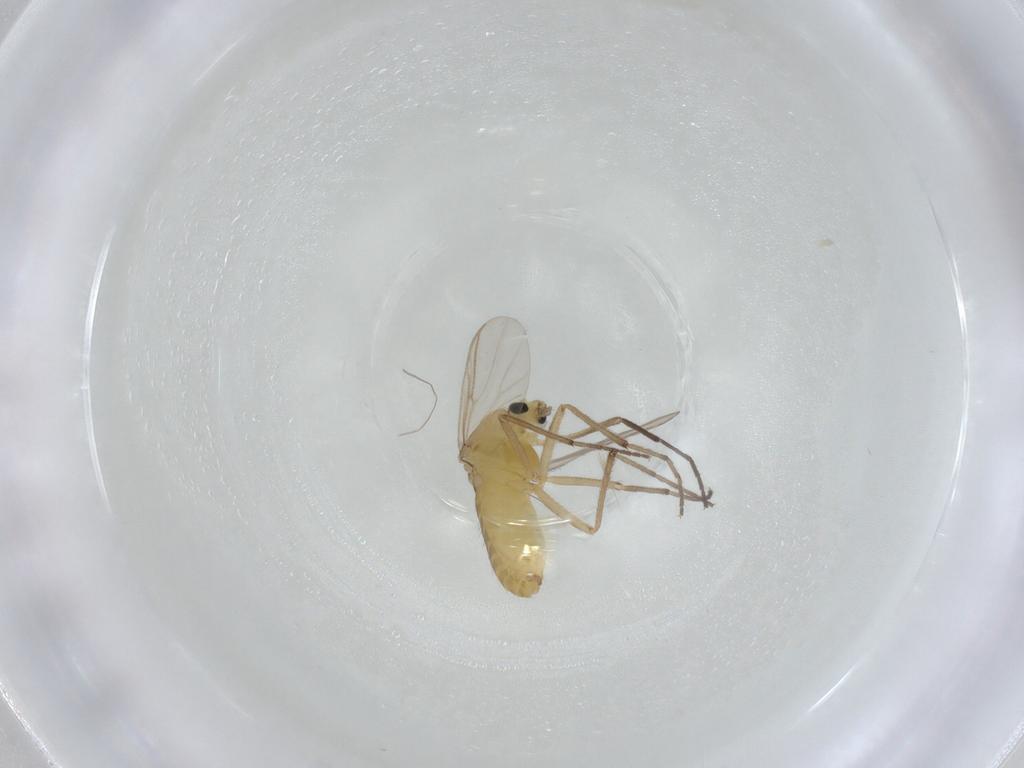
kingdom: Animalia
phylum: Arthropoda
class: Insecta
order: Diptera
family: Chironomidae
